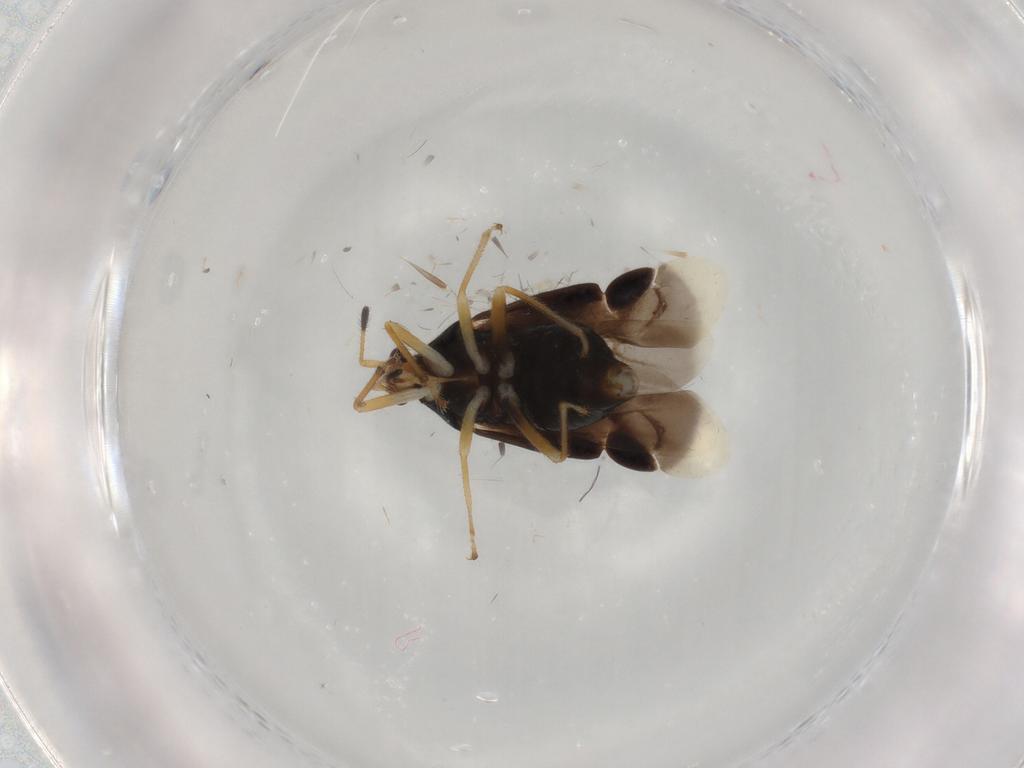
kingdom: Animalia
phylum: Arthropoda
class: Insecta
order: Hemiptera
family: Miridae
